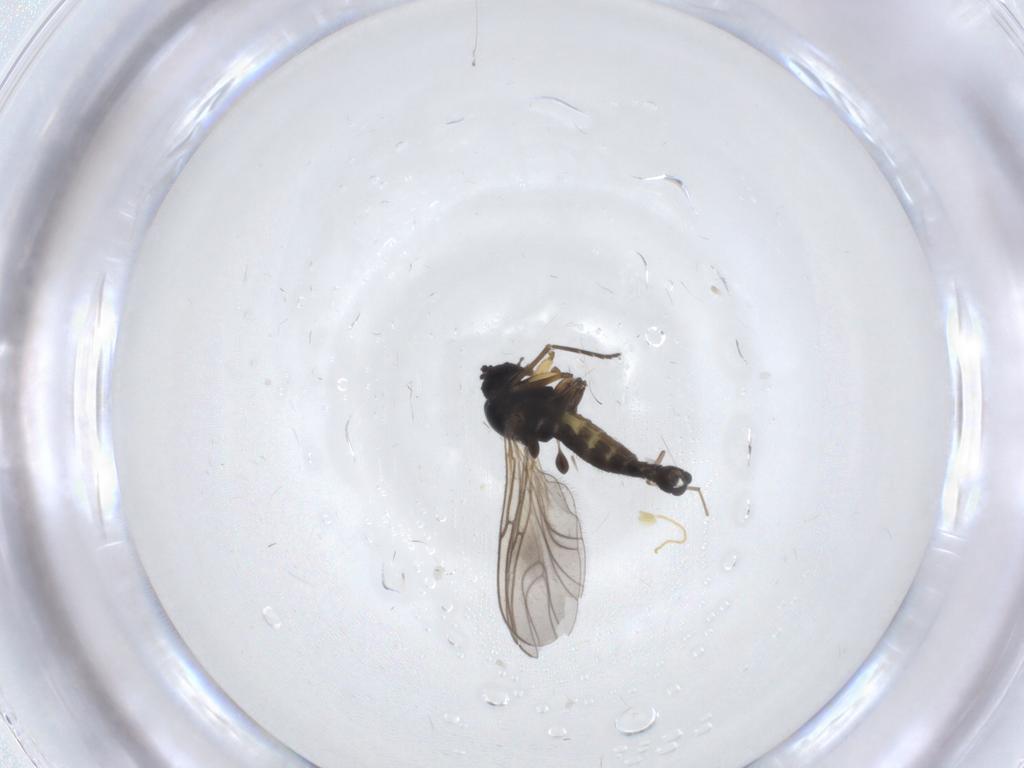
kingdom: Animalia
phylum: Arthropoda
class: Insecta
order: Diptera
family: Sciaridae
